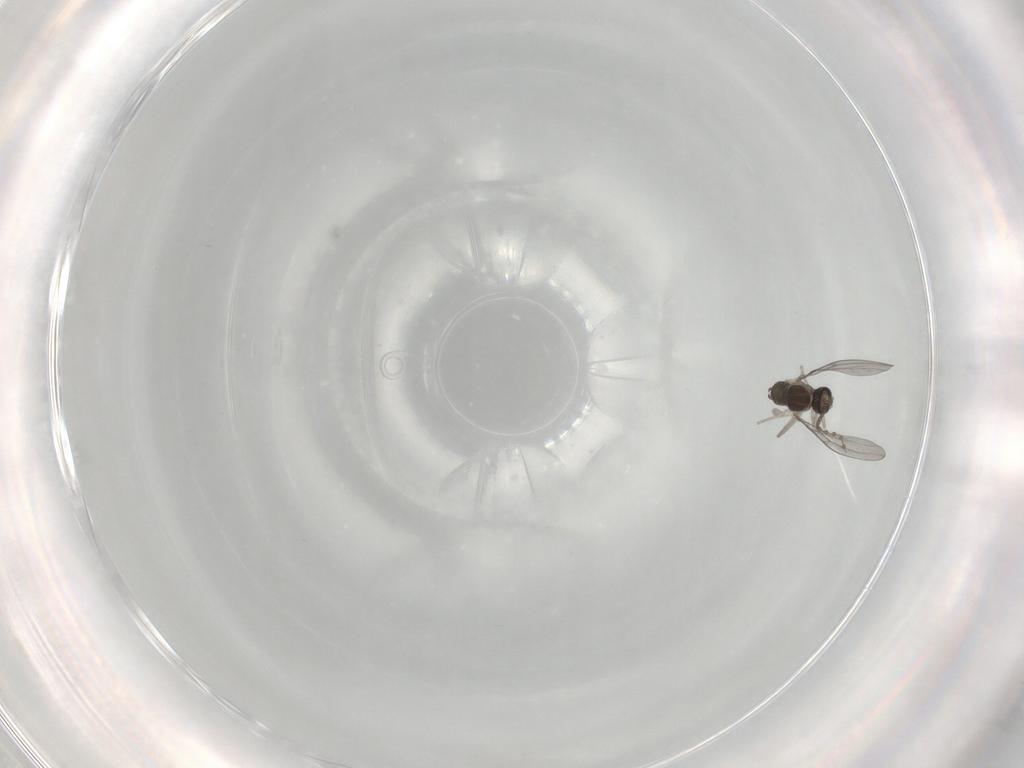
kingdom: Animalia
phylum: Arthropoda
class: Insecta
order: Diptera
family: Cecidomyiidae
